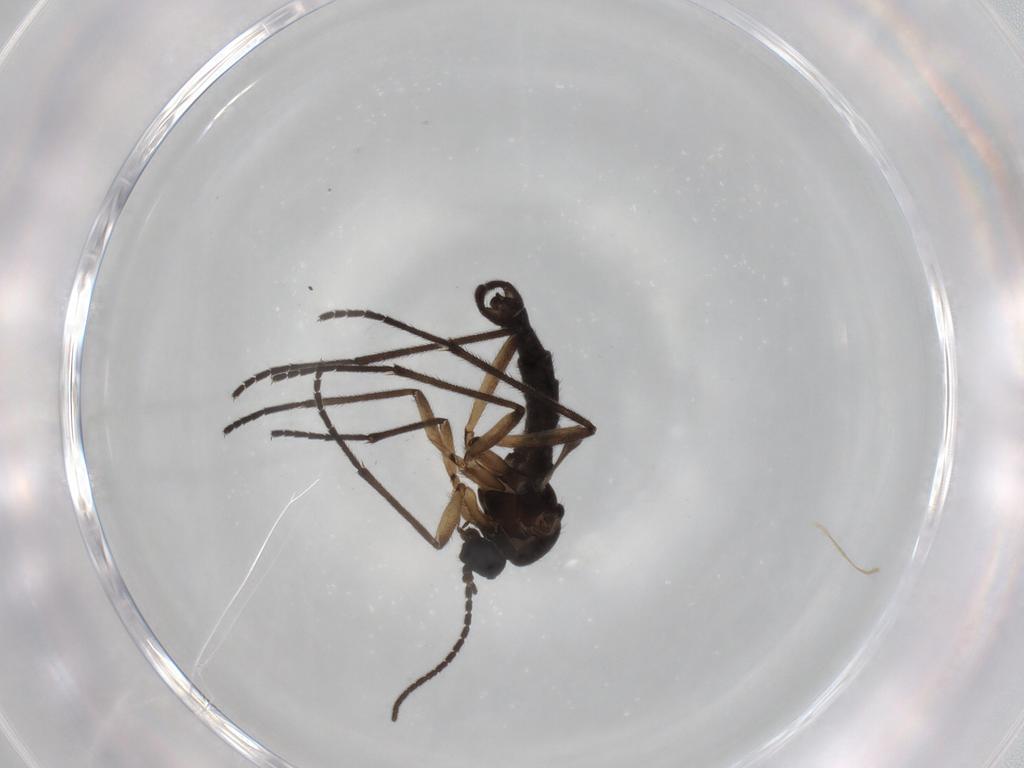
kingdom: Animalia
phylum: Arthropoda
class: Insecta
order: Diptera
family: Sciaridae
